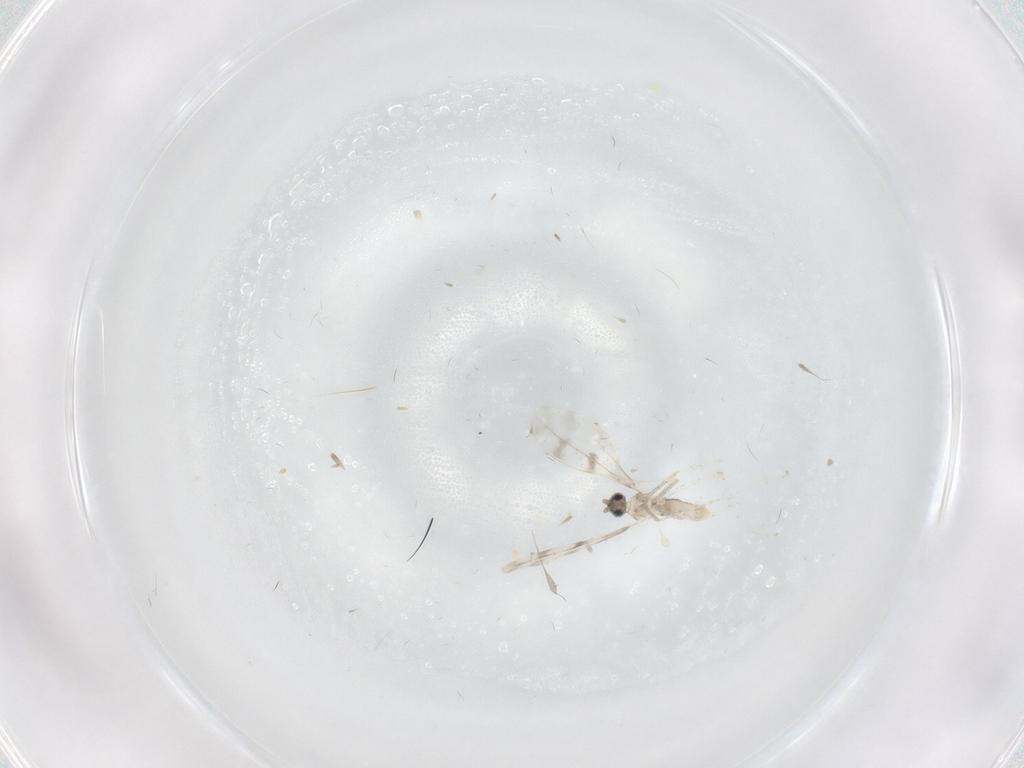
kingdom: Animalia
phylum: Arthropoda
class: Insecta
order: Diptera
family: Cecidomyiidae
